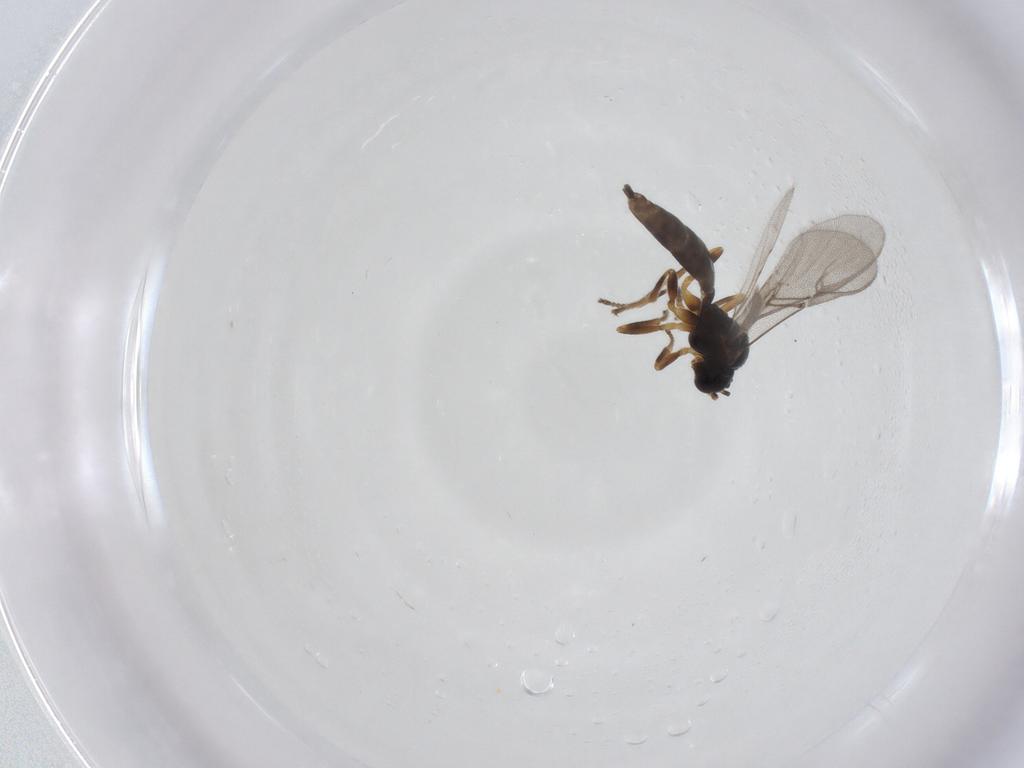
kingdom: Animalia
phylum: Arthropoda
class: Insecta
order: Hymenoptera
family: Braconidae
